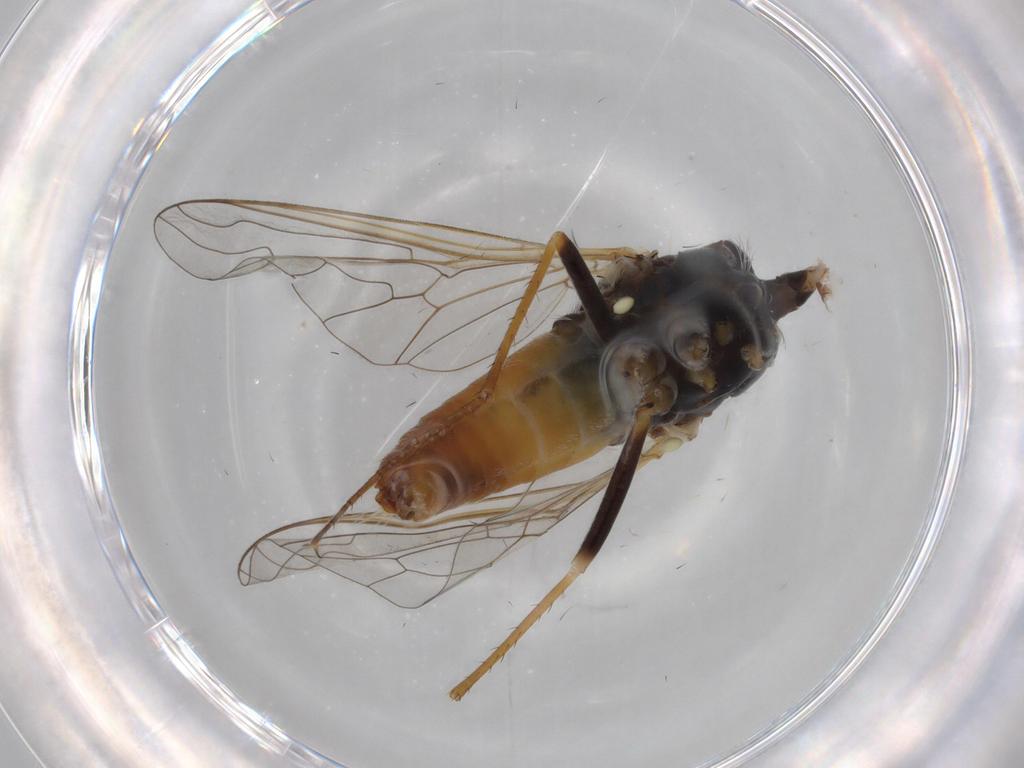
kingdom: Animalia
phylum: Arthropoda
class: Insecta
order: Diptera
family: Bombyliidae
